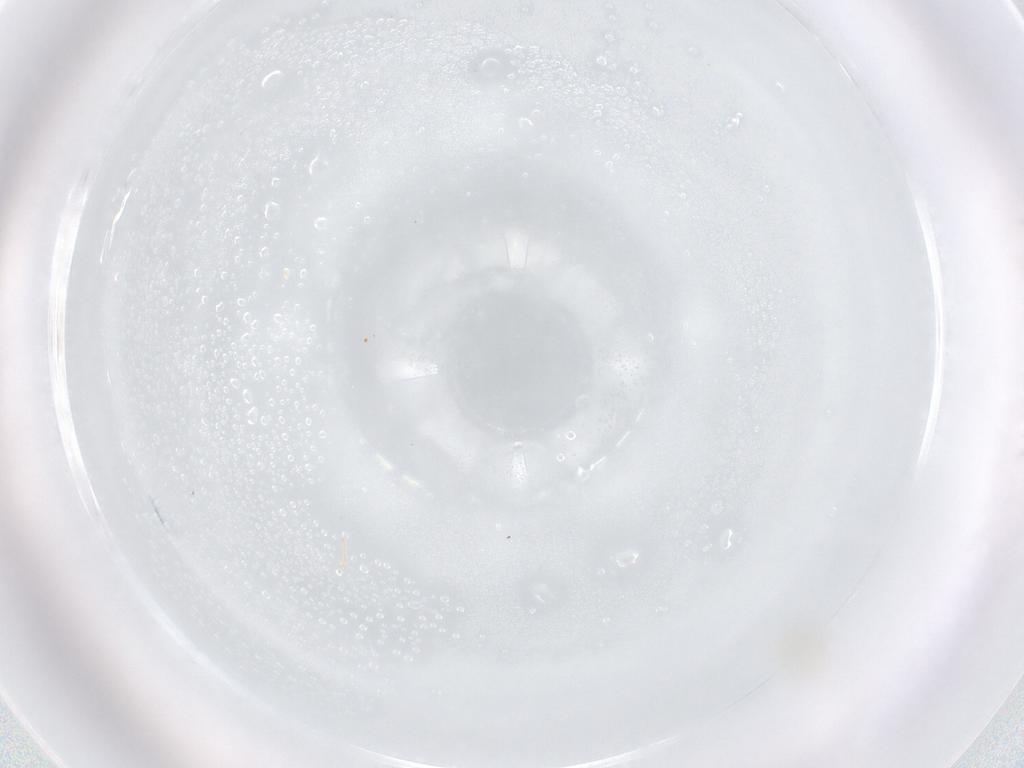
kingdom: Animalia
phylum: Arthropoda
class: Insecta
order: Hymenoptera
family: Mymaridae
